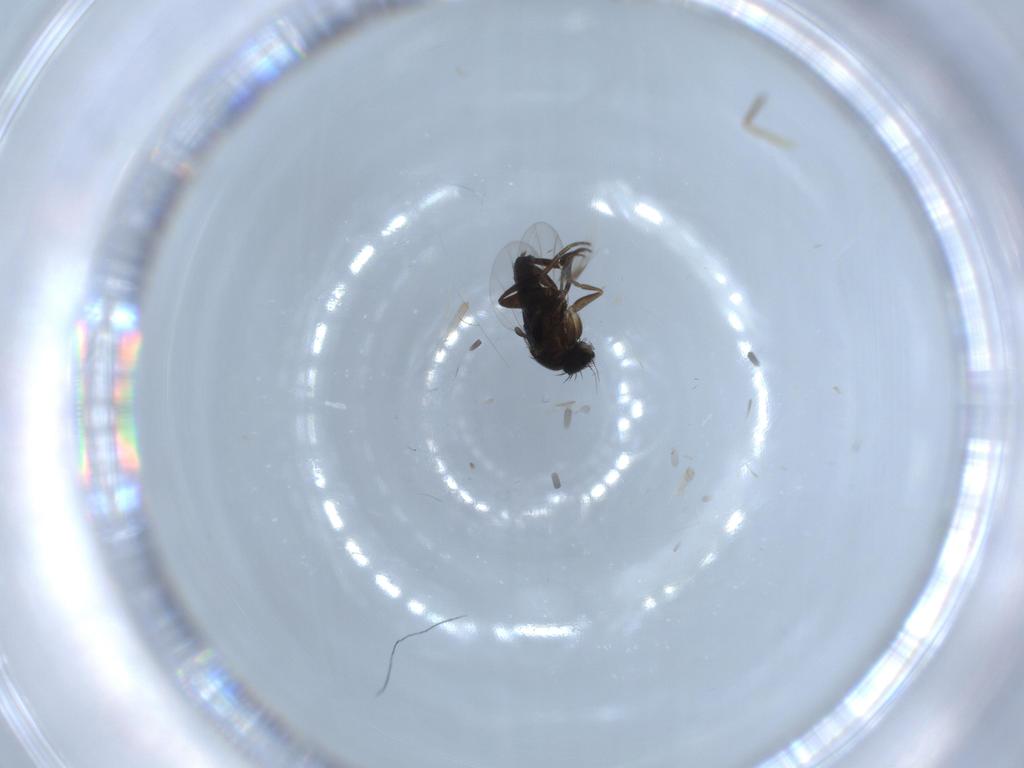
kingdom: Animalia
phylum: Arthropoda
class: Insecta
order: Diptera
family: Phoridae
